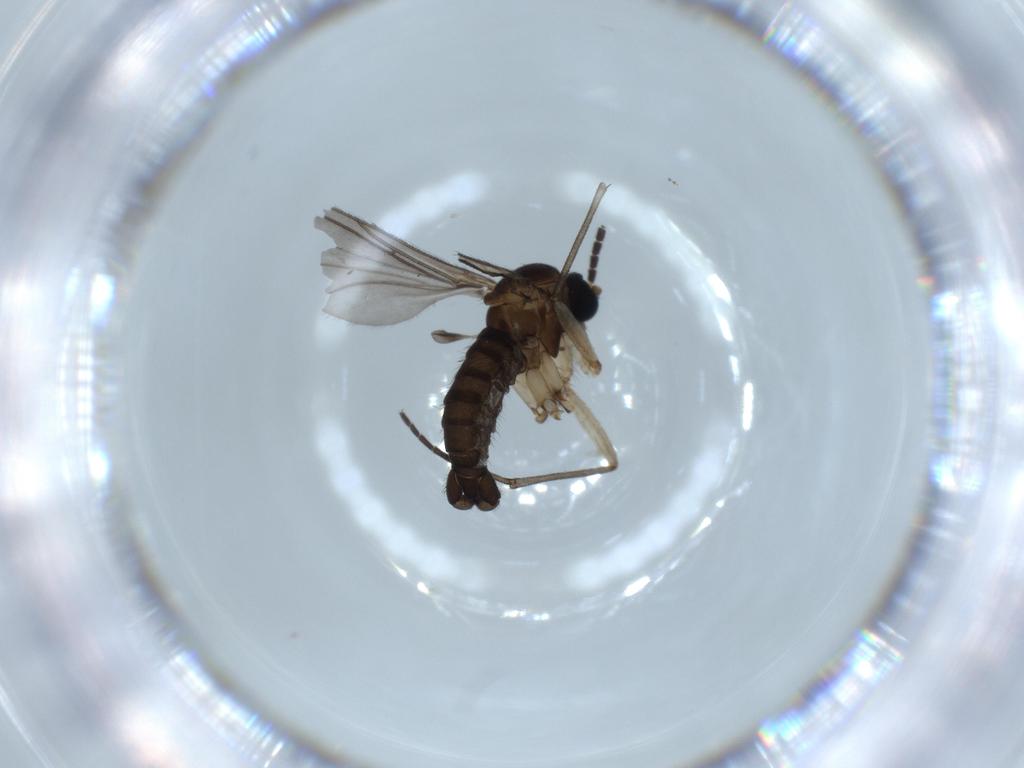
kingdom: Animalia
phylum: Arthropoda
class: Insecta
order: Diptera
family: Sciaridae
